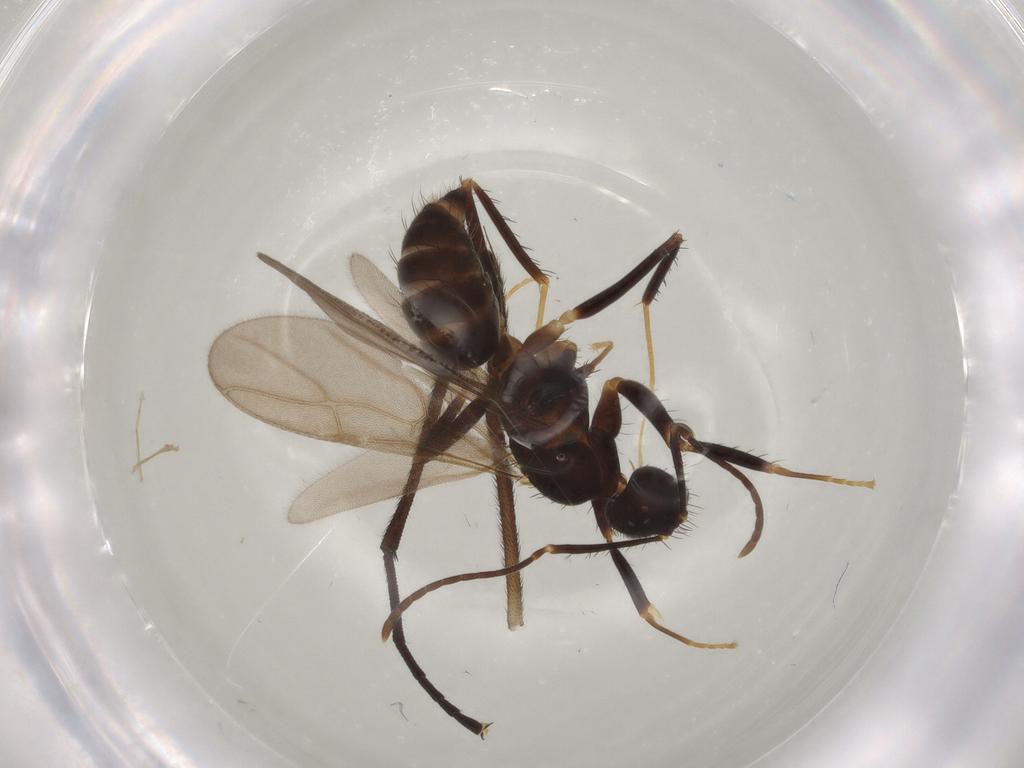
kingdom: Animalia
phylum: Arthropoda
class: Insecta
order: Hymenoptera
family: Formicidae
